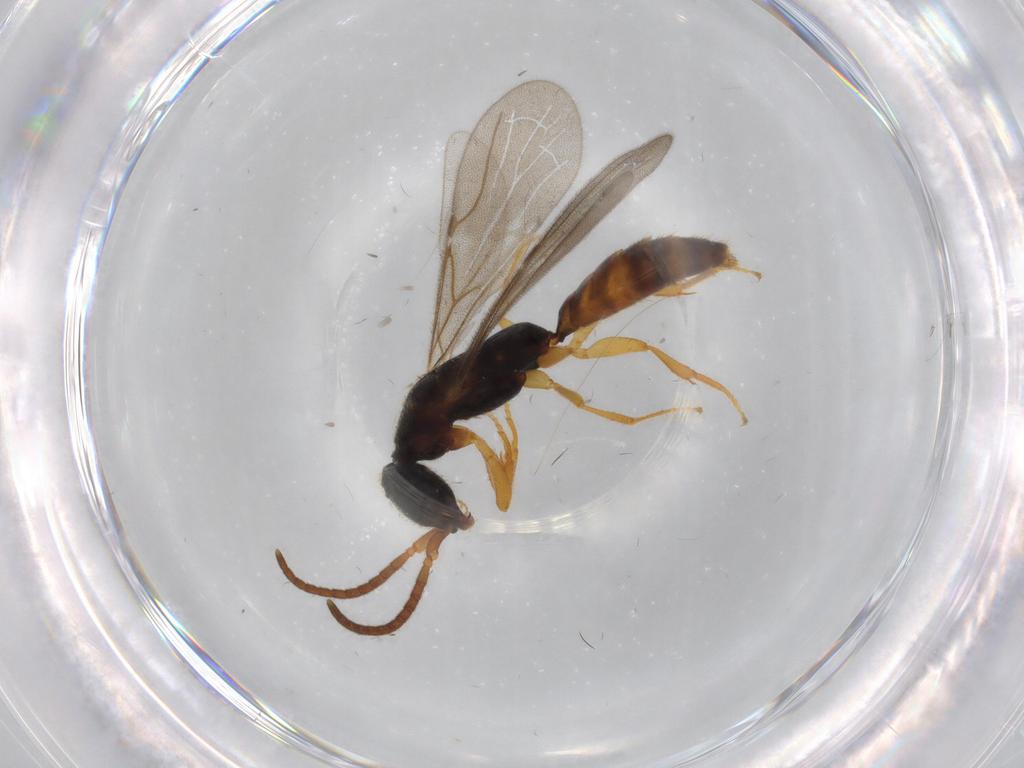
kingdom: Animalia
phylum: Arthropoda
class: Insecta
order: Hymenoptera
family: Bethylidae
